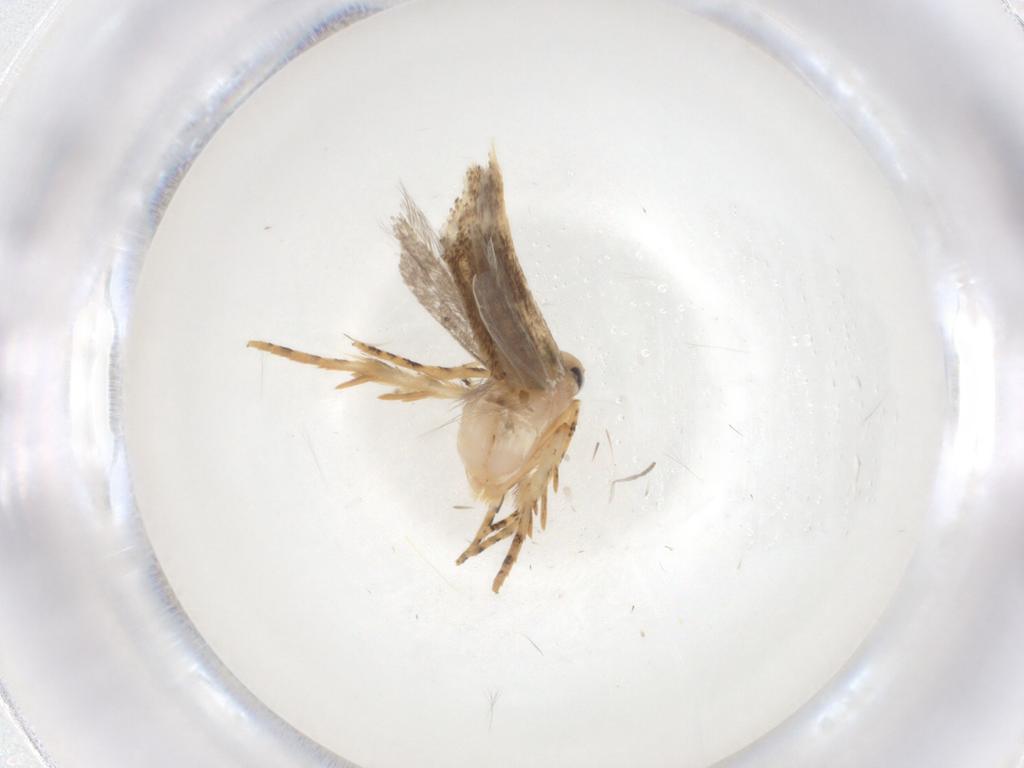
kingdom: Animalia
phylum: Arthropoda
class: Insecta
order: Lepidoptera
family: Gelechiidae
